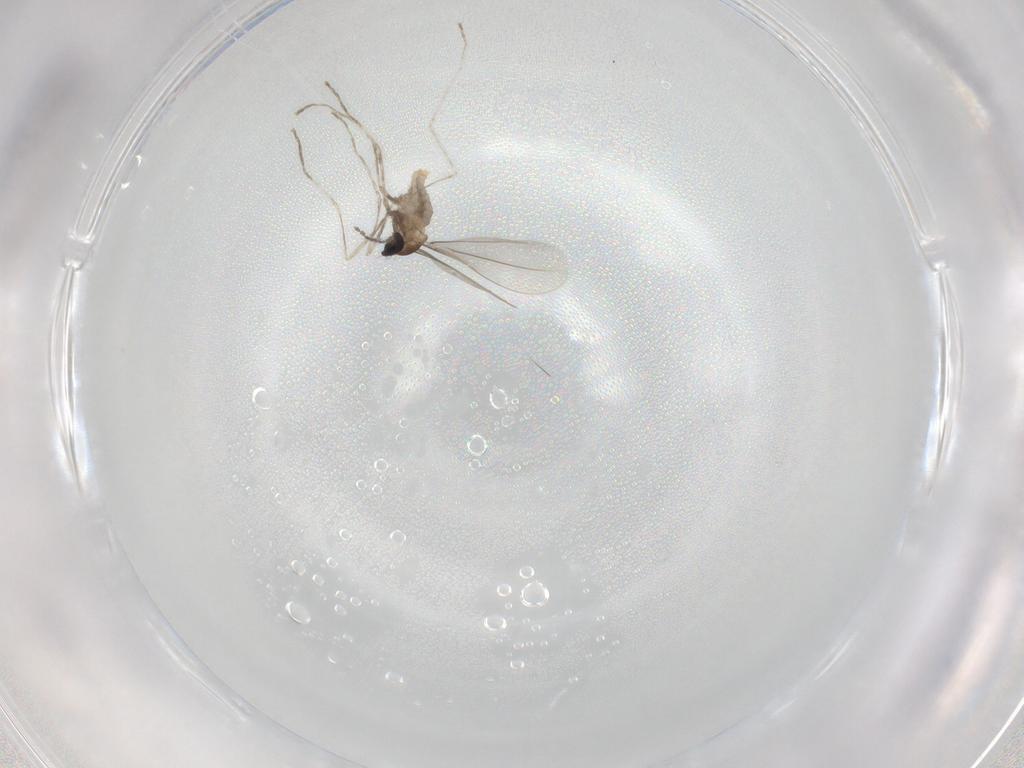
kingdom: Animalia
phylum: Arthropoda
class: Insecta
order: Diptera
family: Cecidomyiidae
